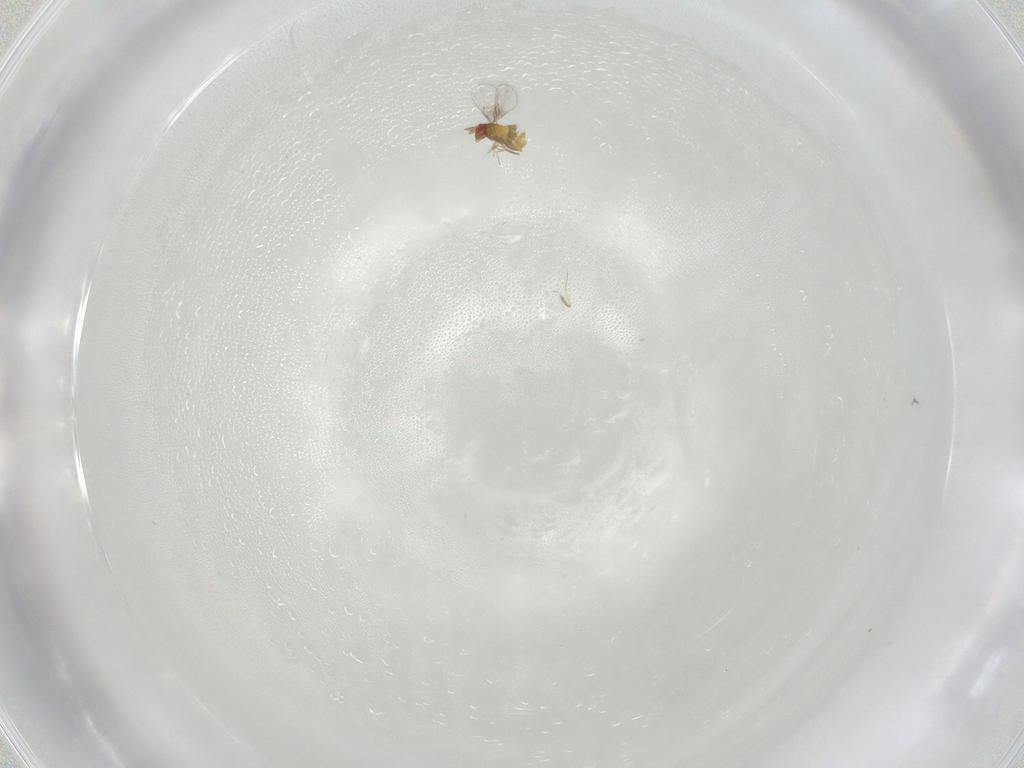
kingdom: Animalia
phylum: Arthropoda
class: Insecta
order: Hymenoptera
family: Trichogrammatidae
